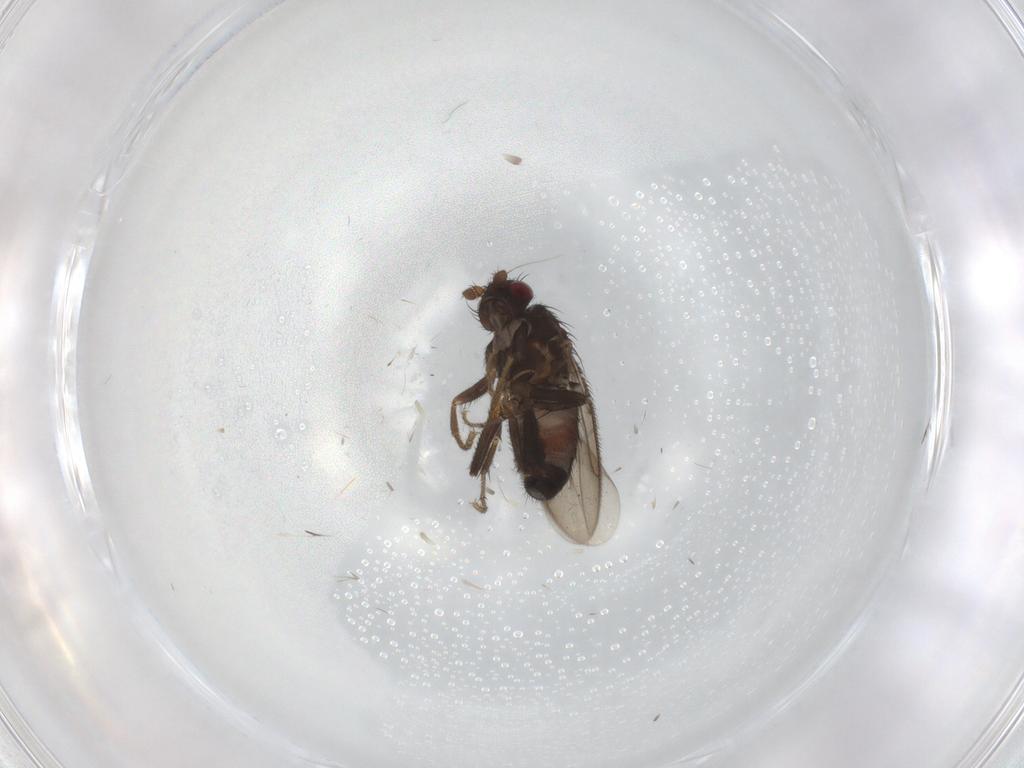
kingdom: Animalia
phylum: Arthropoda
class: Insecta
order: Diptera
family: Sphaeroceridae
